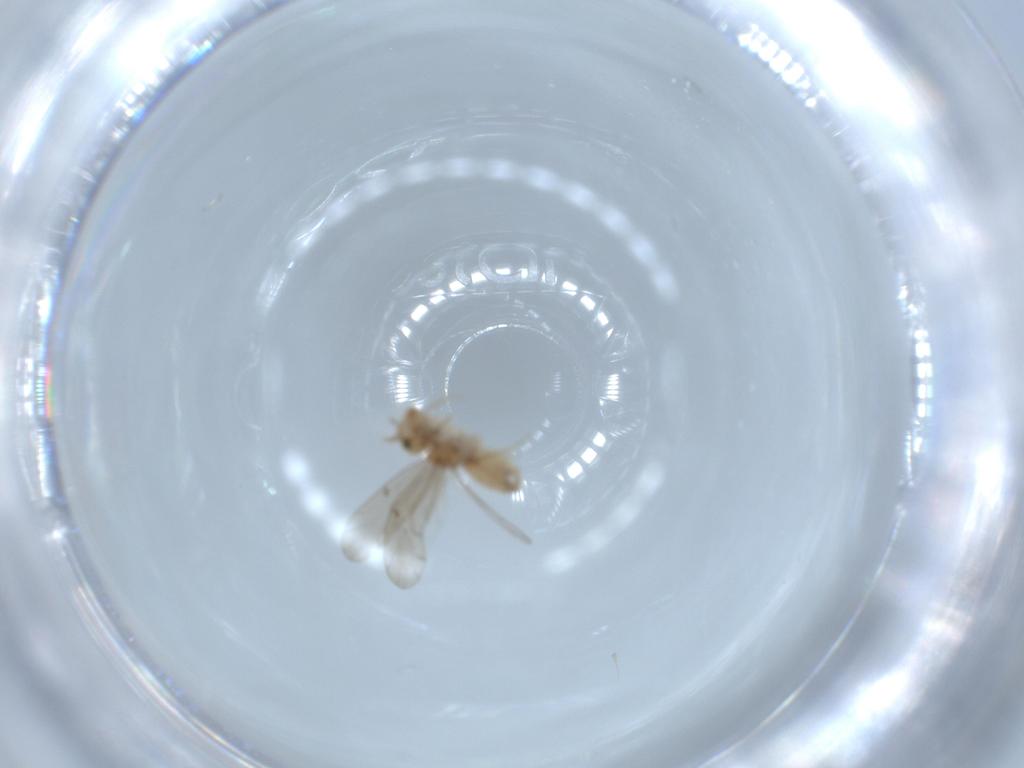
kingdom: Animalia
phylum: Arthropoda
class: Insecta
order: Psocodea
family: Ectopsocidae
